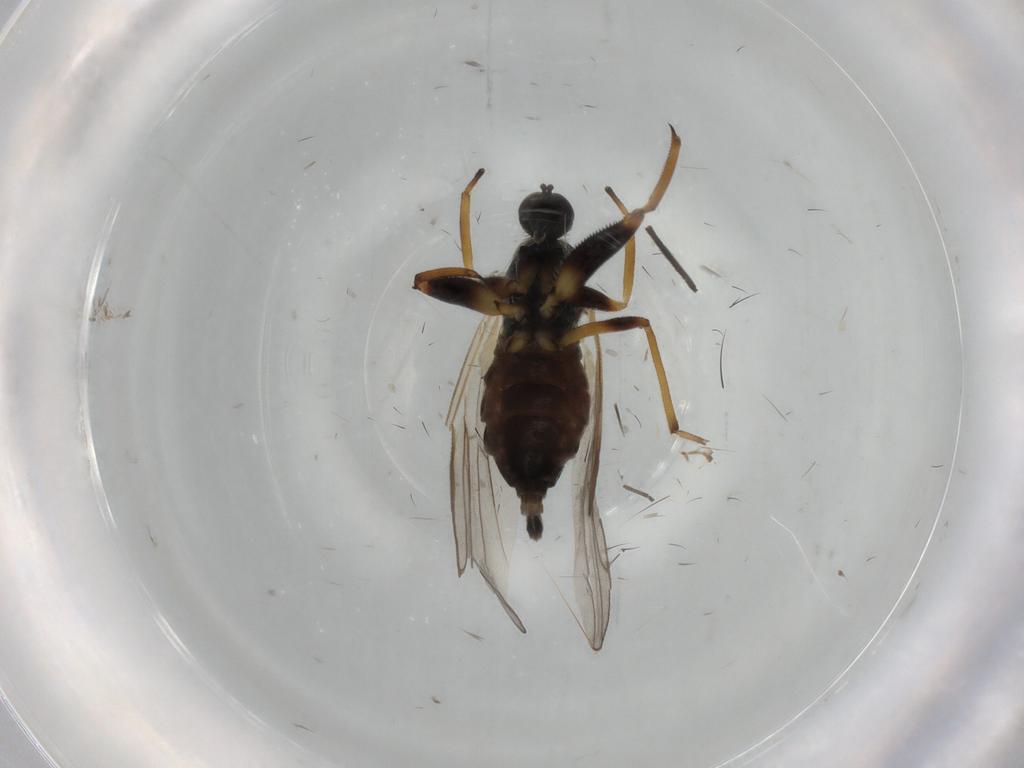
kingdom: Animalia
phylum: Arthropoda
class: Insecta
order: Diptera
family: Hybotidae
